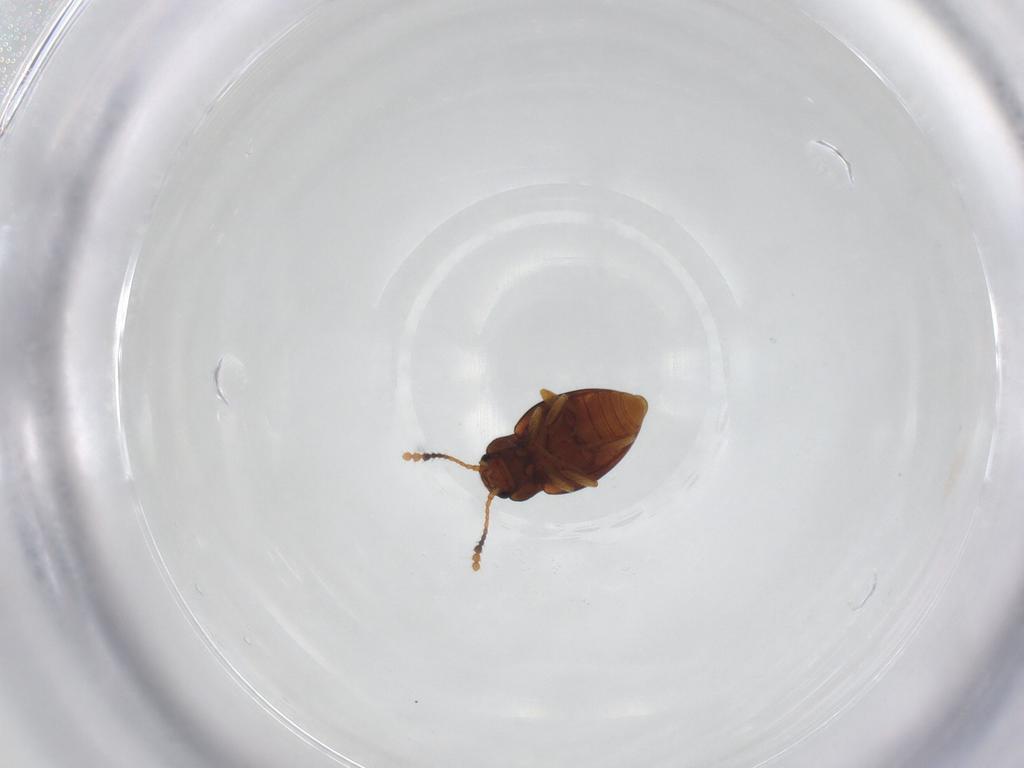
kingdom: Animalia
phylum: Arthropoda
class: Insecta
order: Coleoptera
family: Erotylidae
